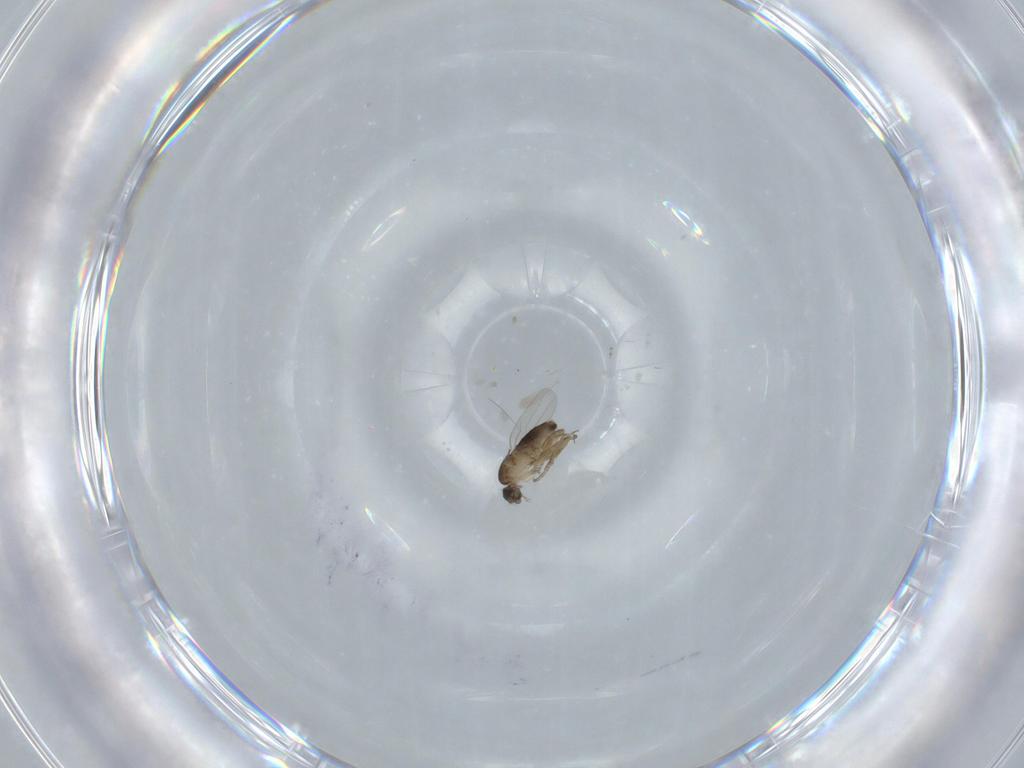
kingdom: Animalia
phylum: Arthropoda
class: Insecta
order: Diptera
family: Phoridae
